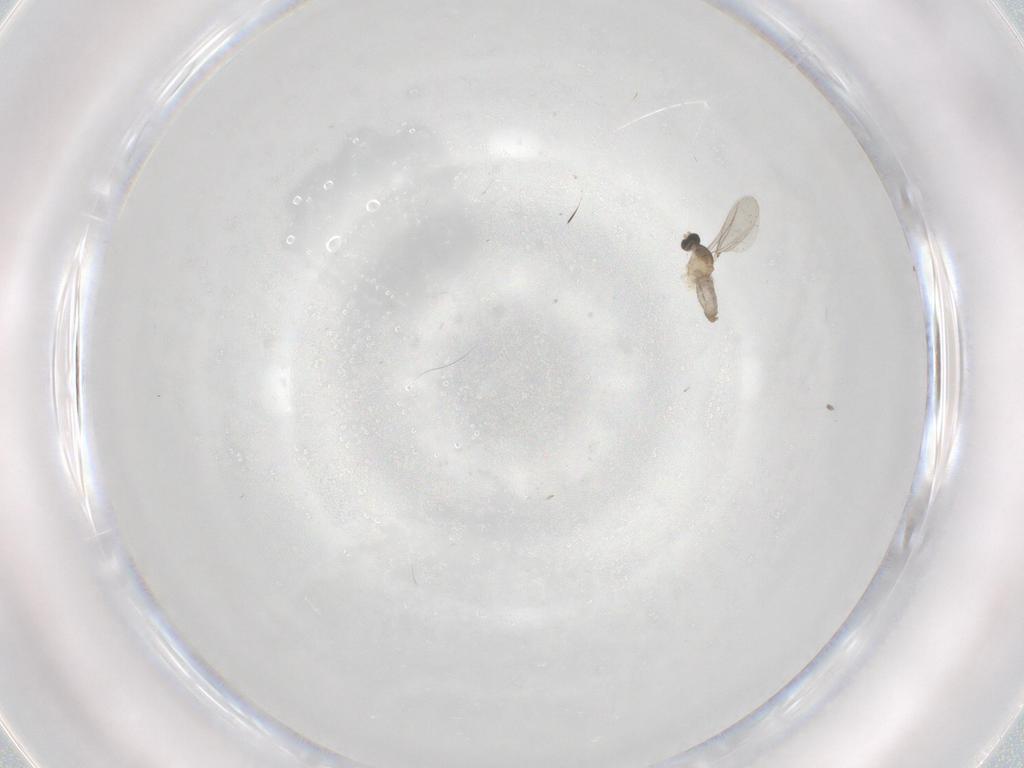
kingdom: Animalia
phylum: Arthropoda
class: Insecta
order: Diptera
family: Cecidomyiidae
